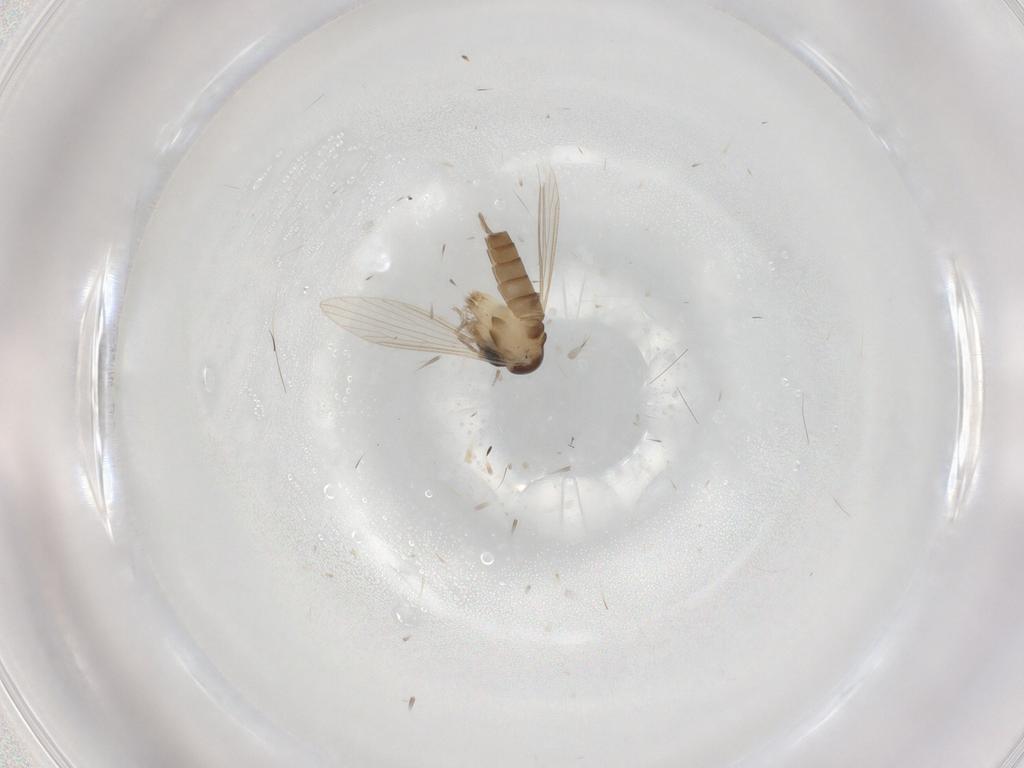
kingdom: Animalia
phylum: Arthropoda
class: Insecta
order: Diptera
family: Psychodidae
